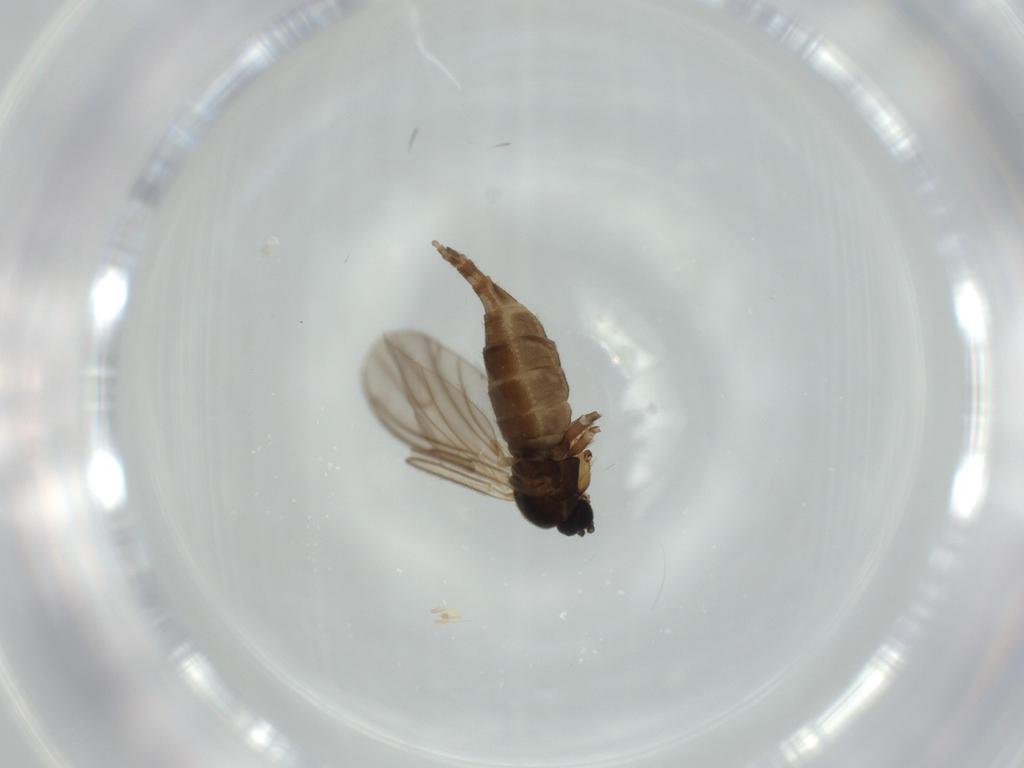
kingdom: Animalia
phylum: Arthropoda
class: Insecta
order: Diptera
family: Sciaridae
